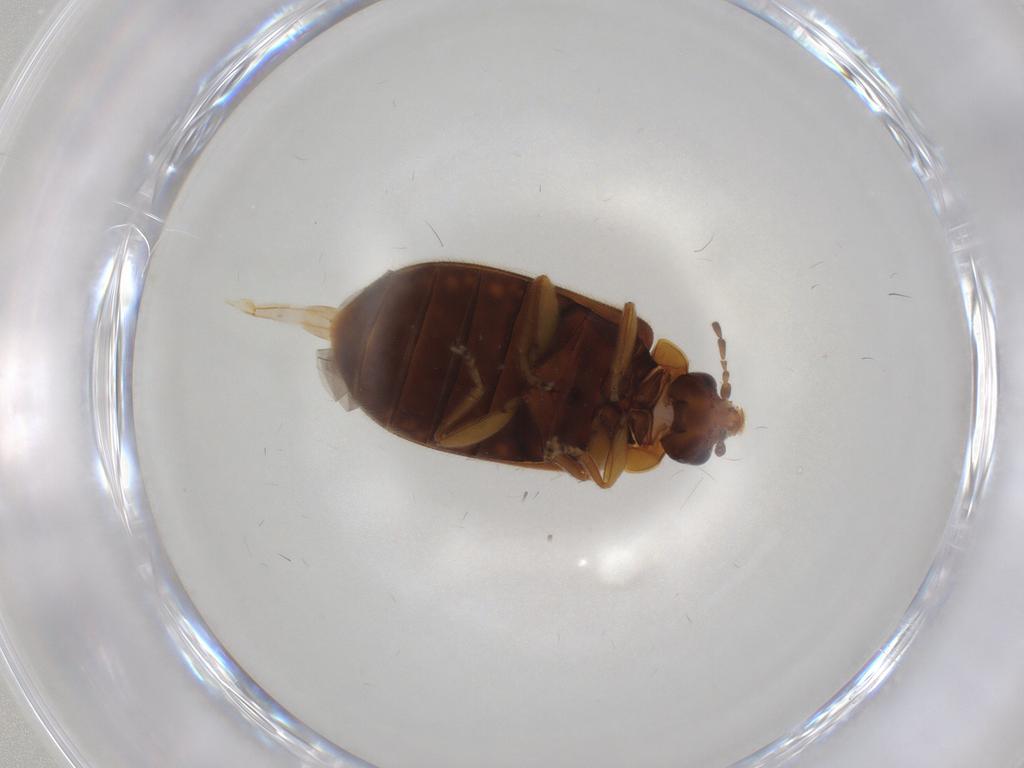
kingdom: Animalia
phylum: Arthropoda
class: Insecta
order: Coleoptera
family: Scirtidae
